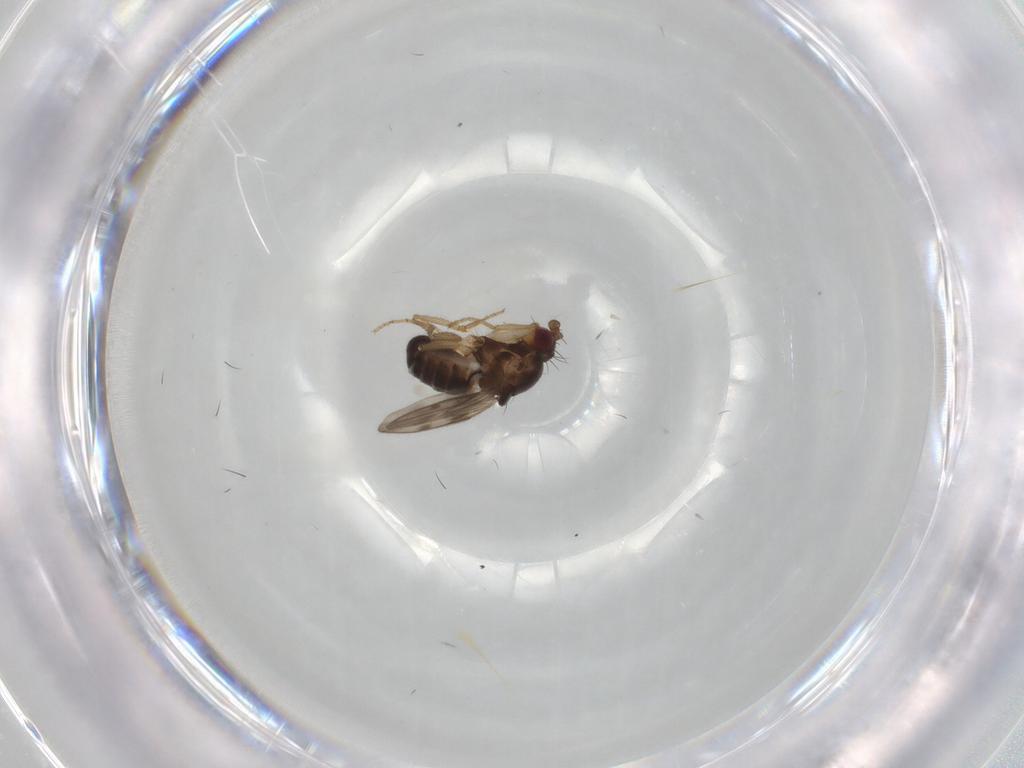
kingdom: Animalia
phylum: Arthropoda
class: Insecta
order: Diptera
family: Sphaeroceridae
